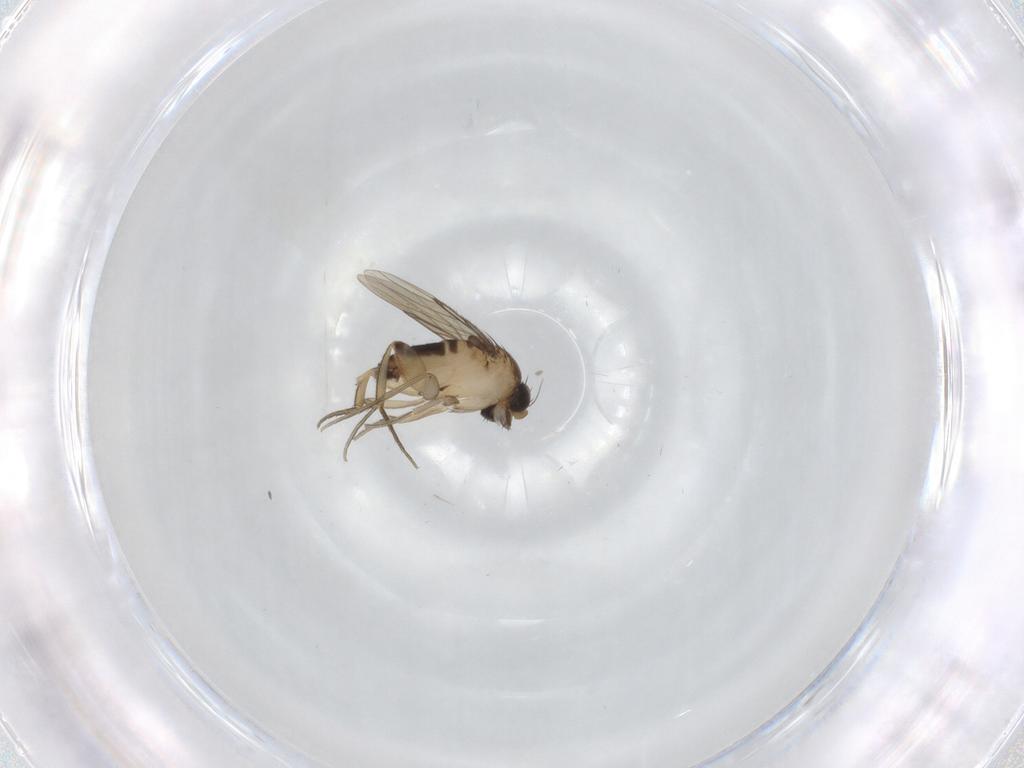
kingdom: Animalia
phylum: Arthropoda
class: Insecta
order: Diptera
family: Phoridae
